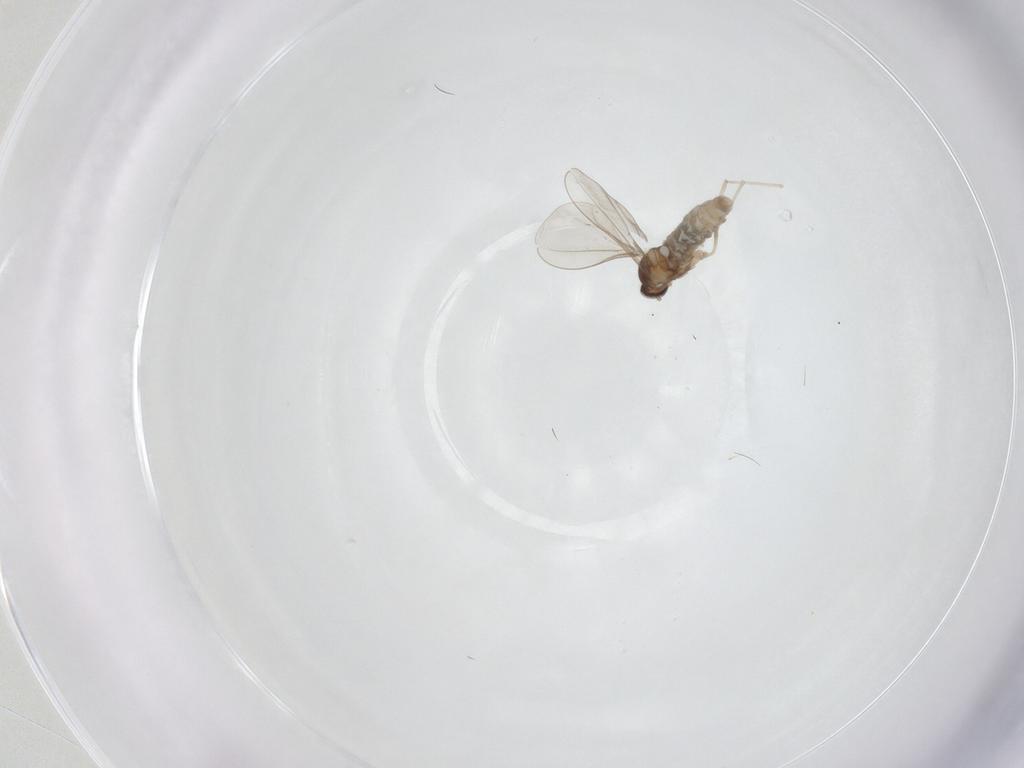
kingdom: Animalia
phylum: Arthropoda
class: Insecta
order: Diptera
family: Cecidomyiidae
